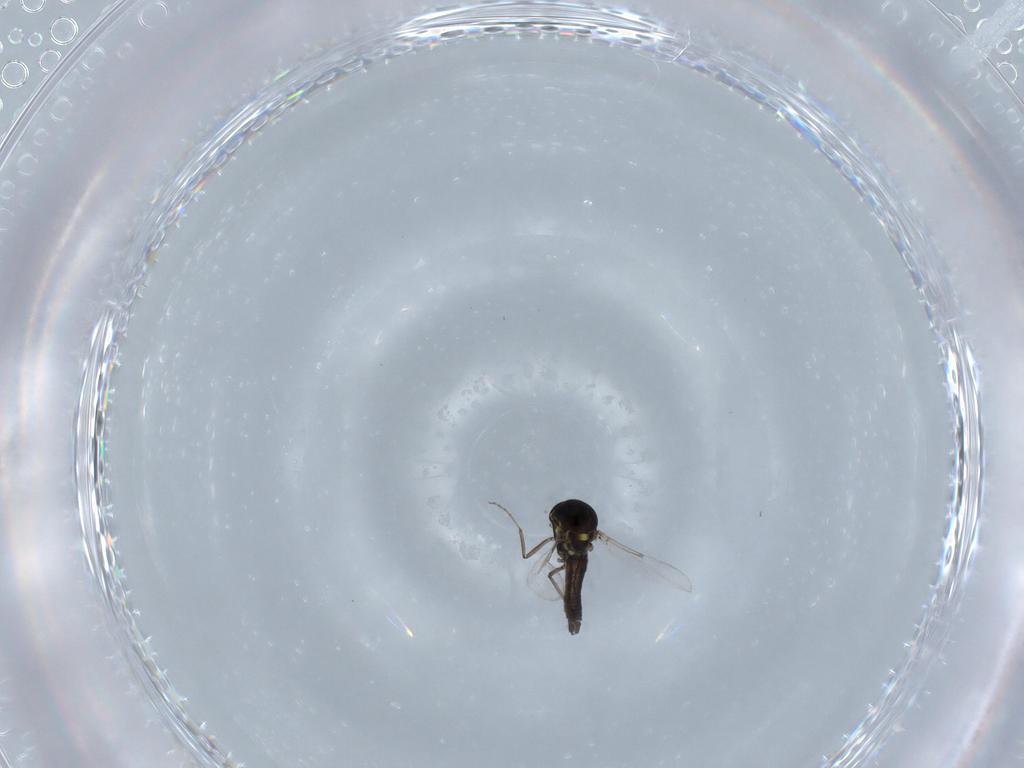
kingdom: Animalia
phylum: Arthropoda
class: Insecta
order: Diptera
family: Ceratopogonidae
